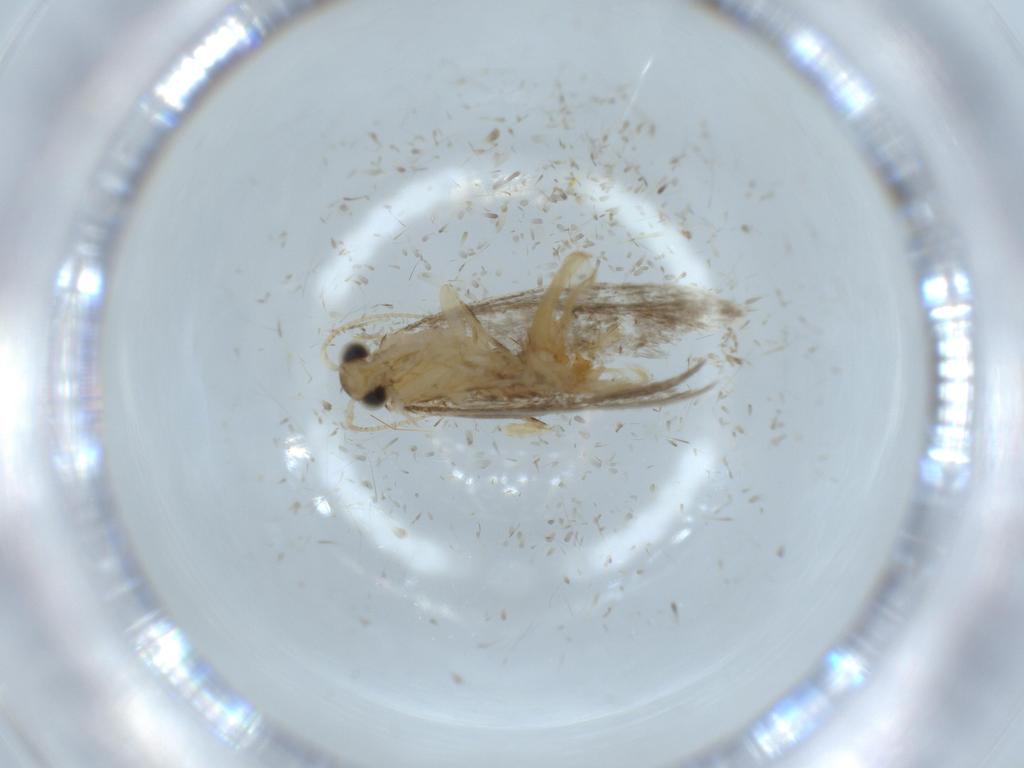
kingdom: Animalia
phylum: Arthropoda
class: Insecta
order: Lepidoptera
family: Tineidae
